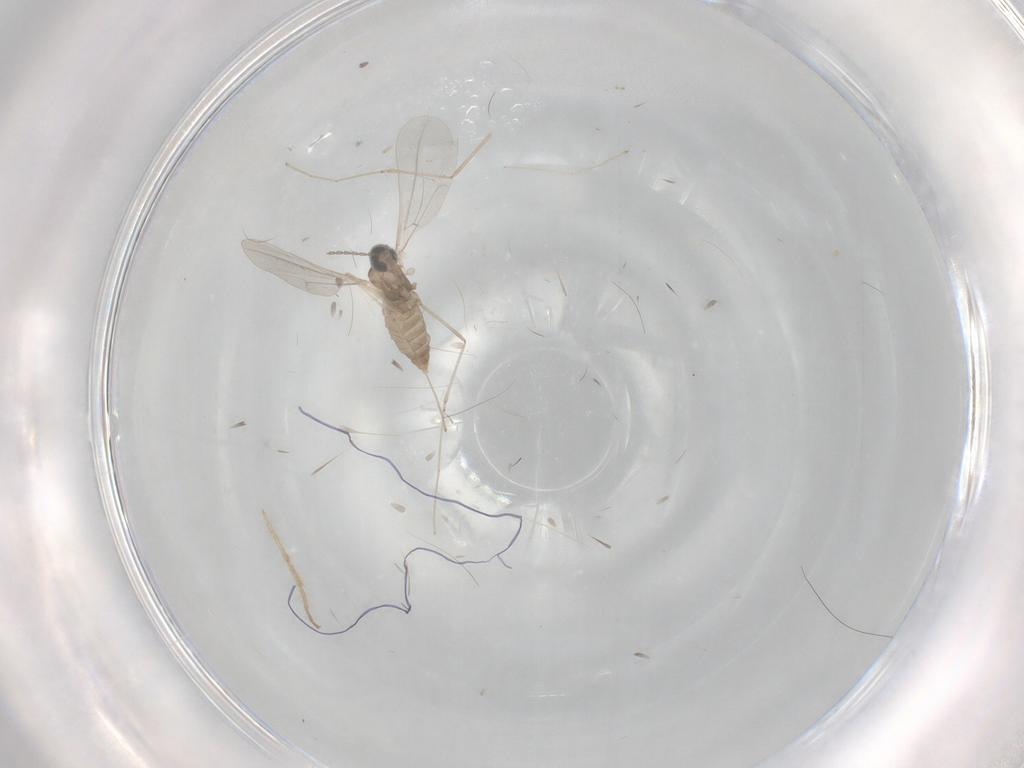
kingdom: Animalia
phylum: Arthropoda
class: Insecta
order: Diptera
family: Cecidomyiidae
